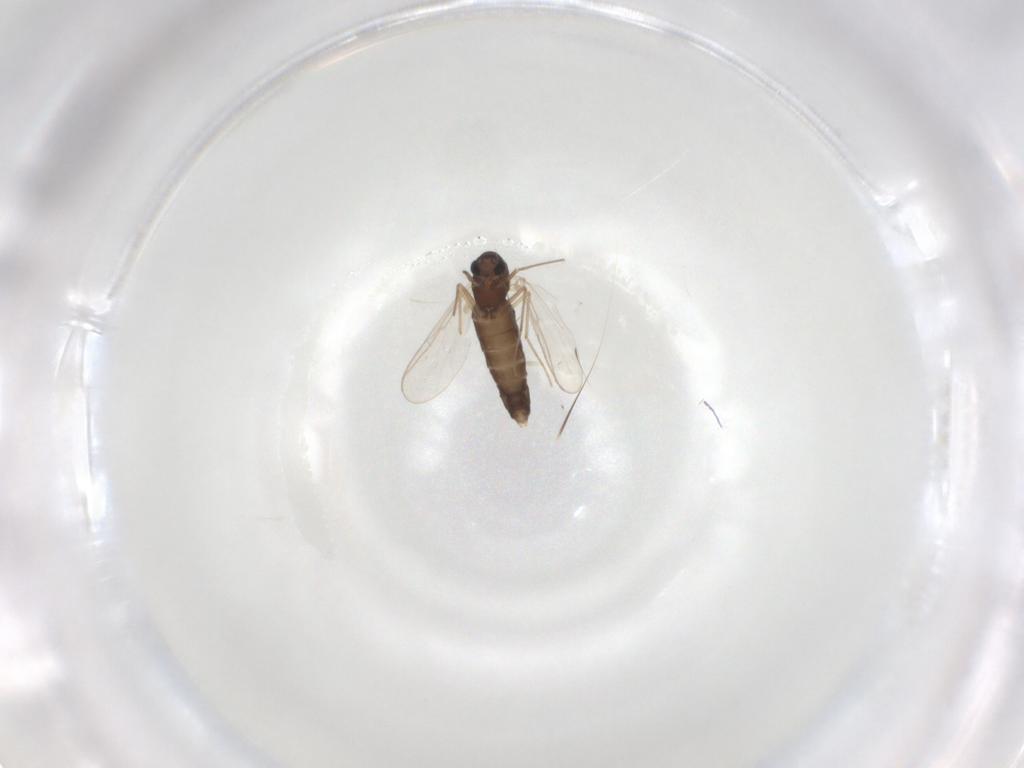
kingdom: Animalia
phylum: Arthropoda
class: Insecta
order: Diptera
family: Chironomidae
